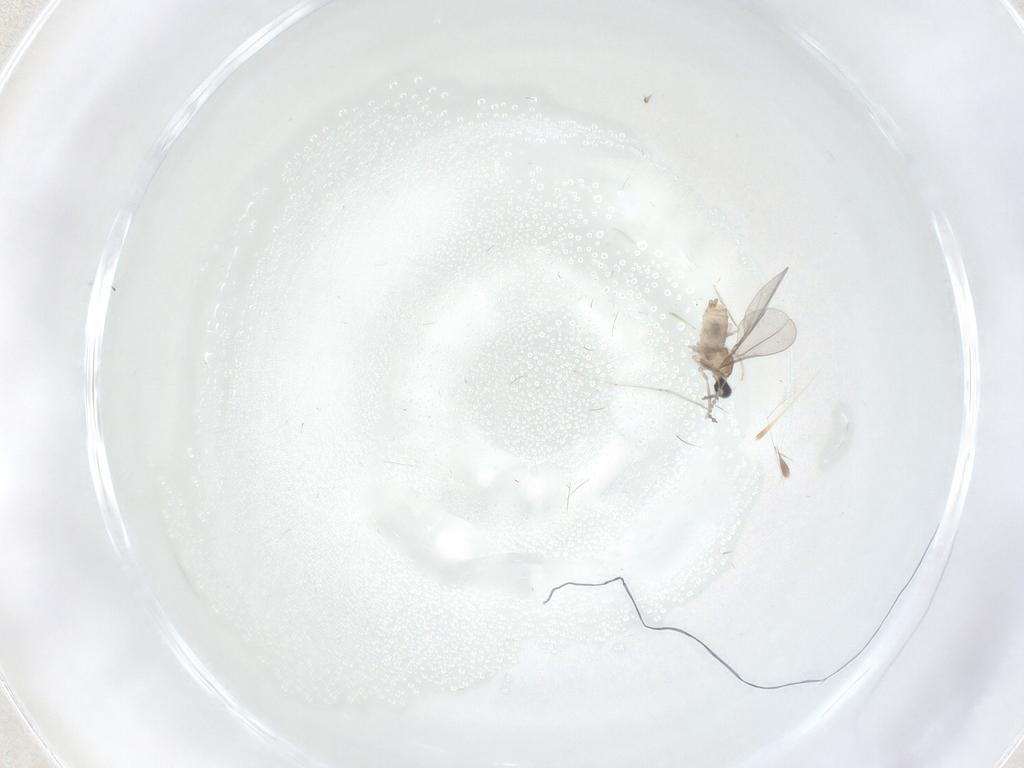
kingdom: Animalia
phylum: Arthropoda
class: Insecta
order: Diptera
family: Cecidomyiidae
